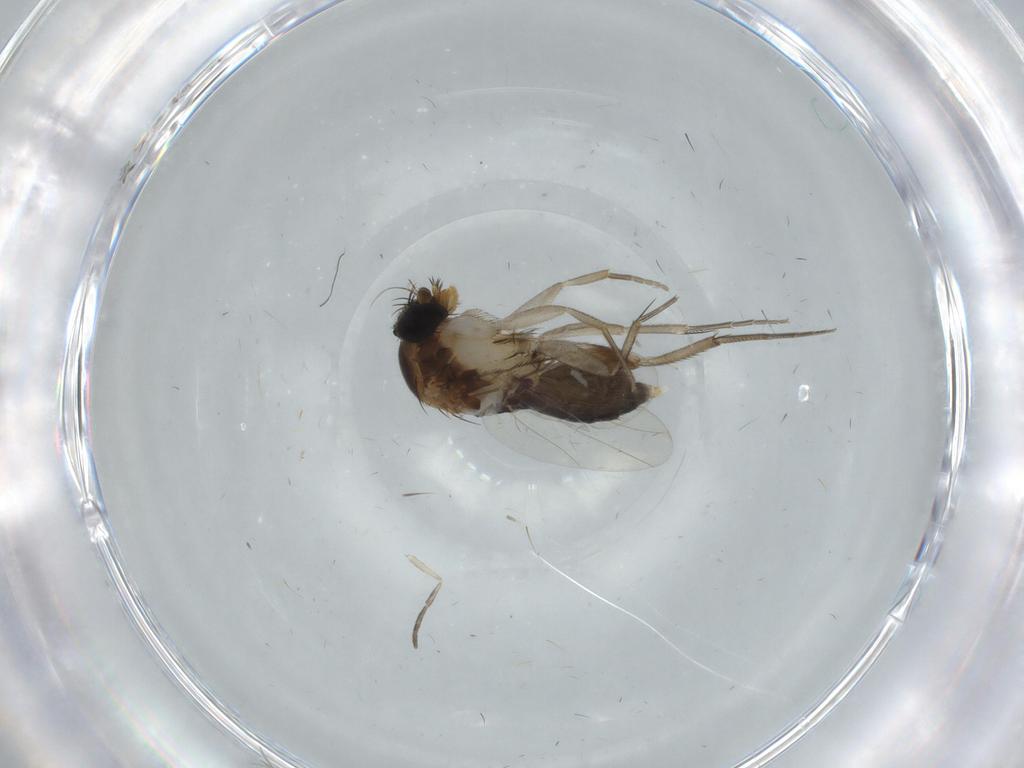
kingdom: Animalia
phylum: Arthropoda
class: Insecta
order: Diptera
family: Phoridae
